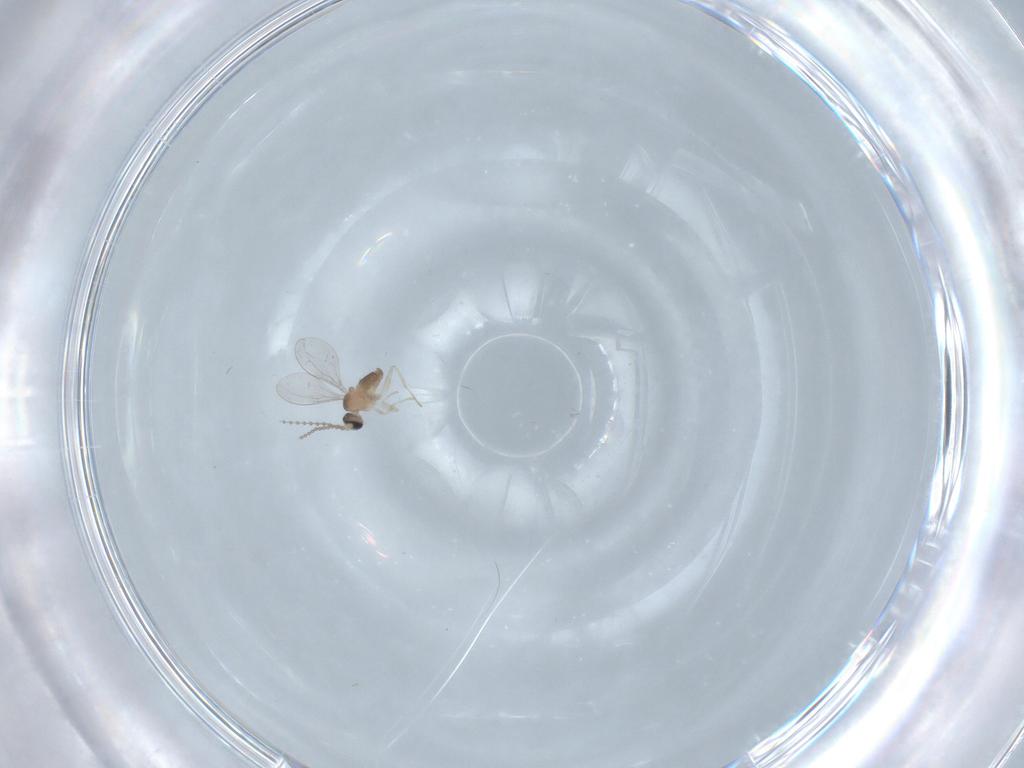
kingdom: Animalia
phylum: Arthropoda
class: Insecta
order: Diptera
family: Cecidomyiidae
